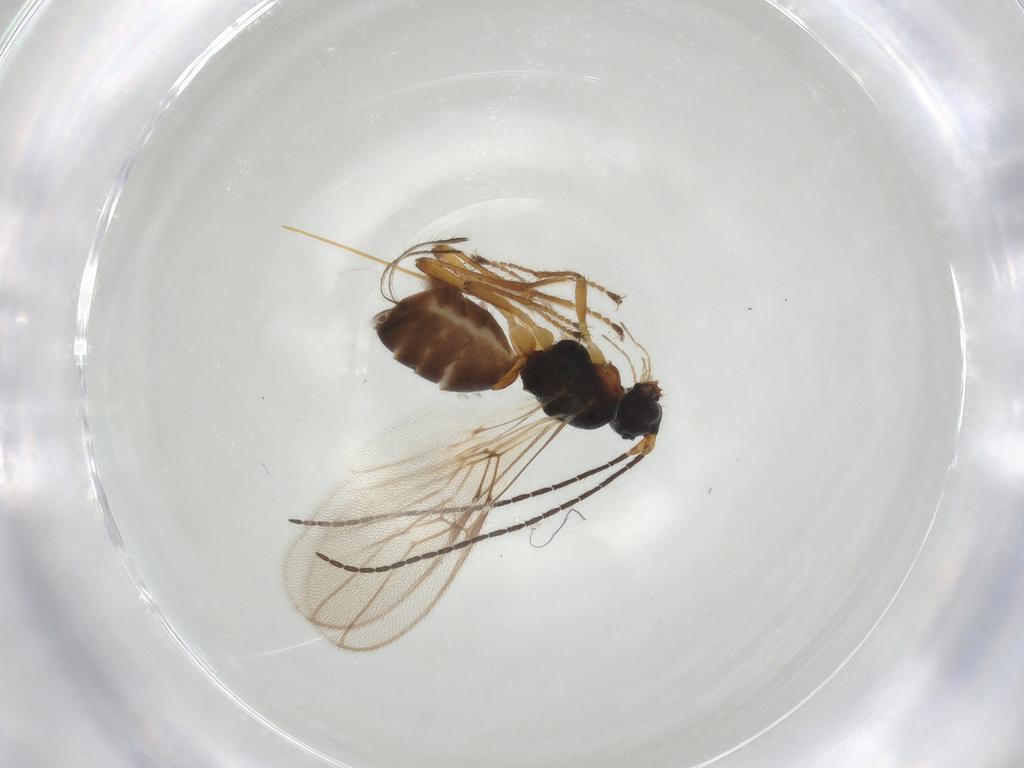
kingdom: Animalia
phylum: Arthropoda
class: Insecta
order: Hymenoptera
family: Braconidae
